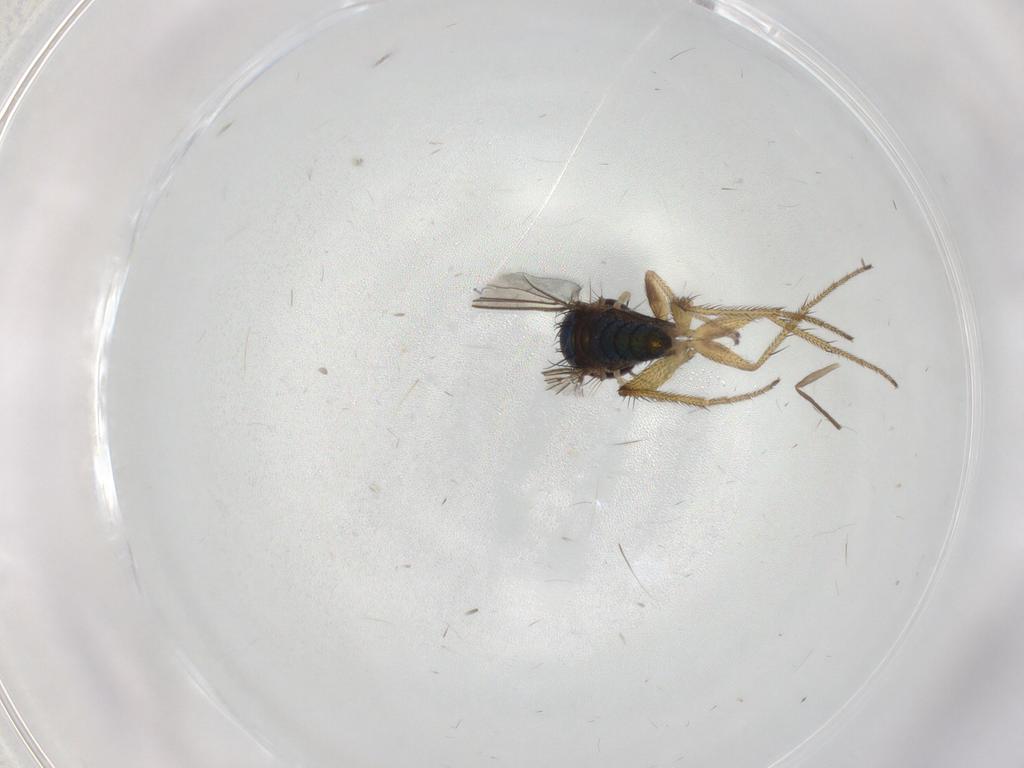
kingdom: Animalia
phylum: Arthropoda
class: Insecta
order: Diptera
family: Chironomidae
